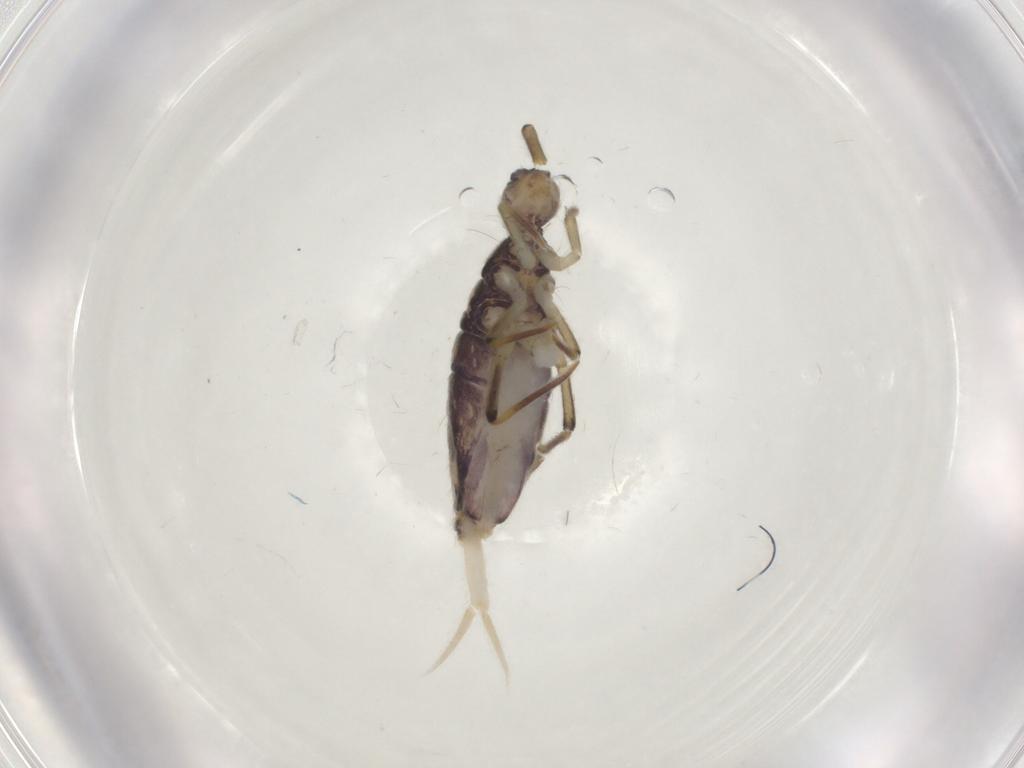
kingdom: Animalia
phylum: Arthropoda
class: Collembola
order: Entomobryomorpha
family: Entomobryidae
